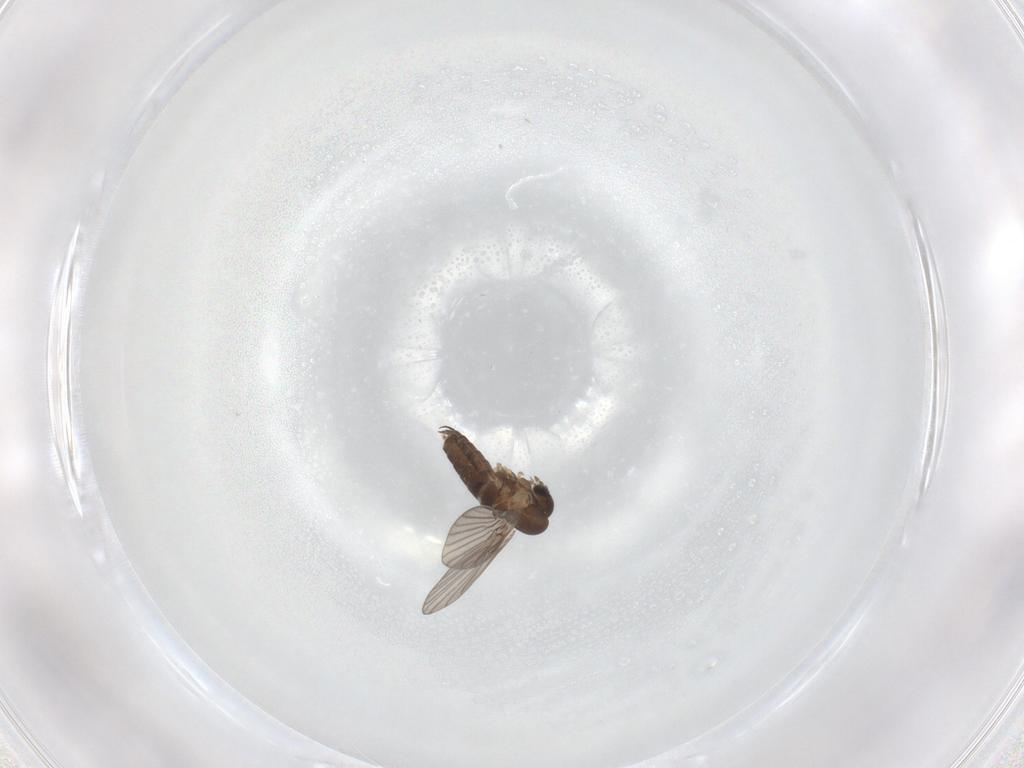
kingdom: Animalia
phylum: Arthropoda
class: Insecta
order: Diptera
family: Psychodidae
